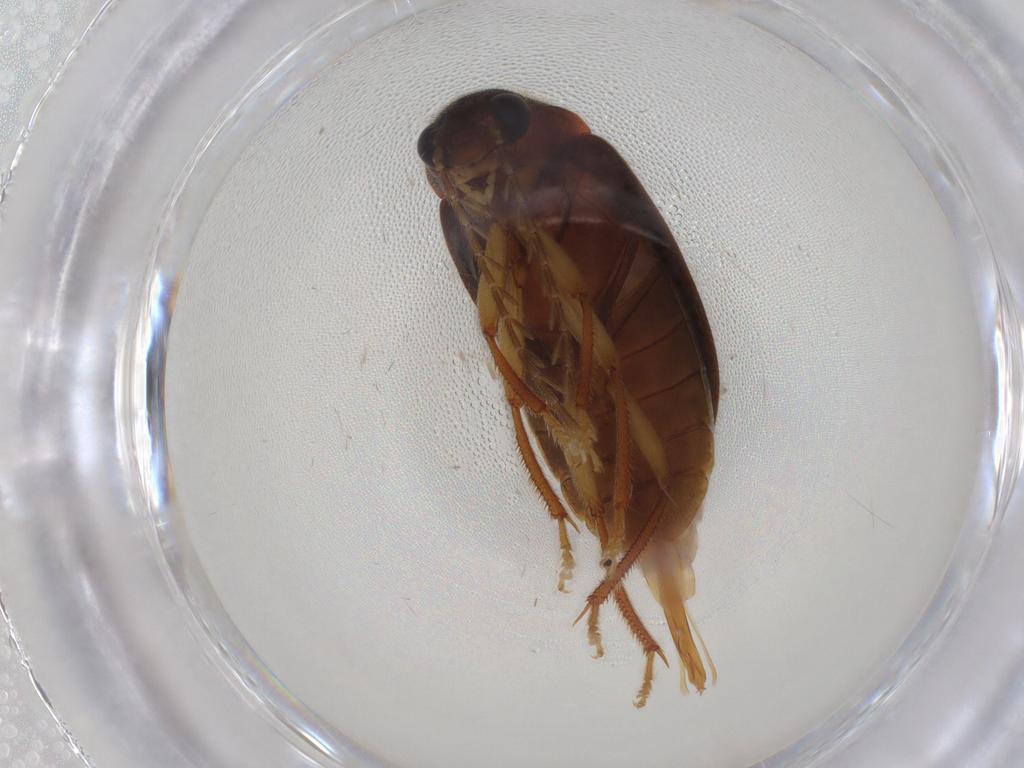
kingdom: Animalia
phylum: Arthropoda
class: Insecta
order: Coleoptera
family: Ptilodactylidae
